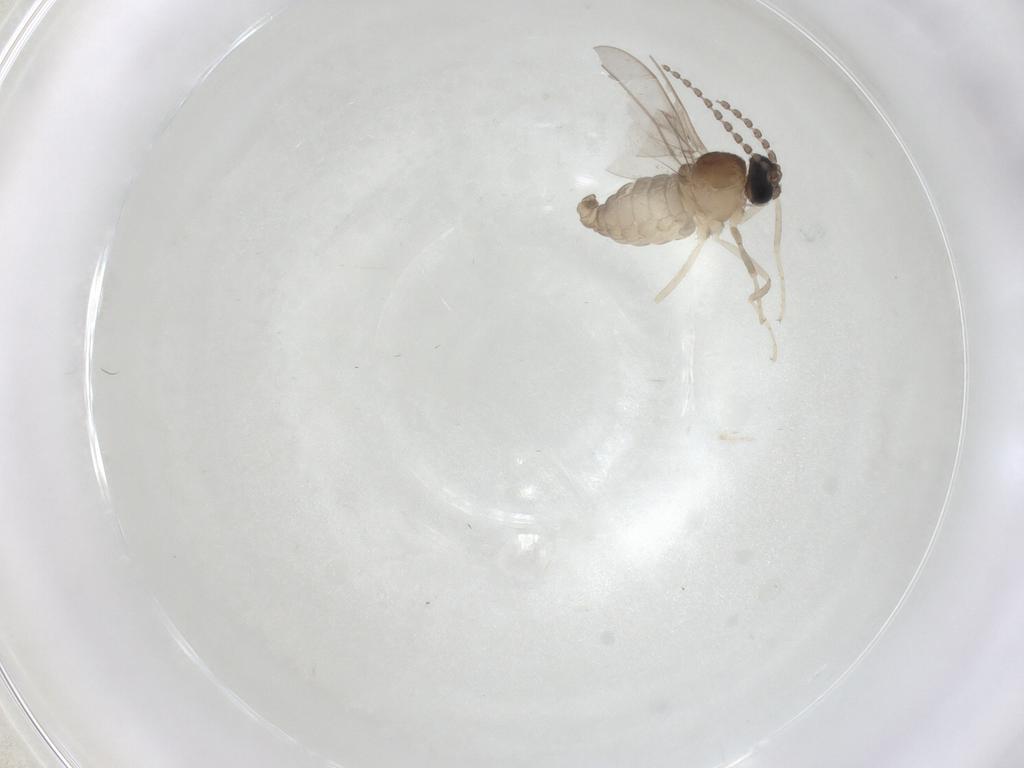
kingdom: Animalia
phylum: Arthropoda
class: Insecta
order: Diptera
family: Cecidomyiidae
